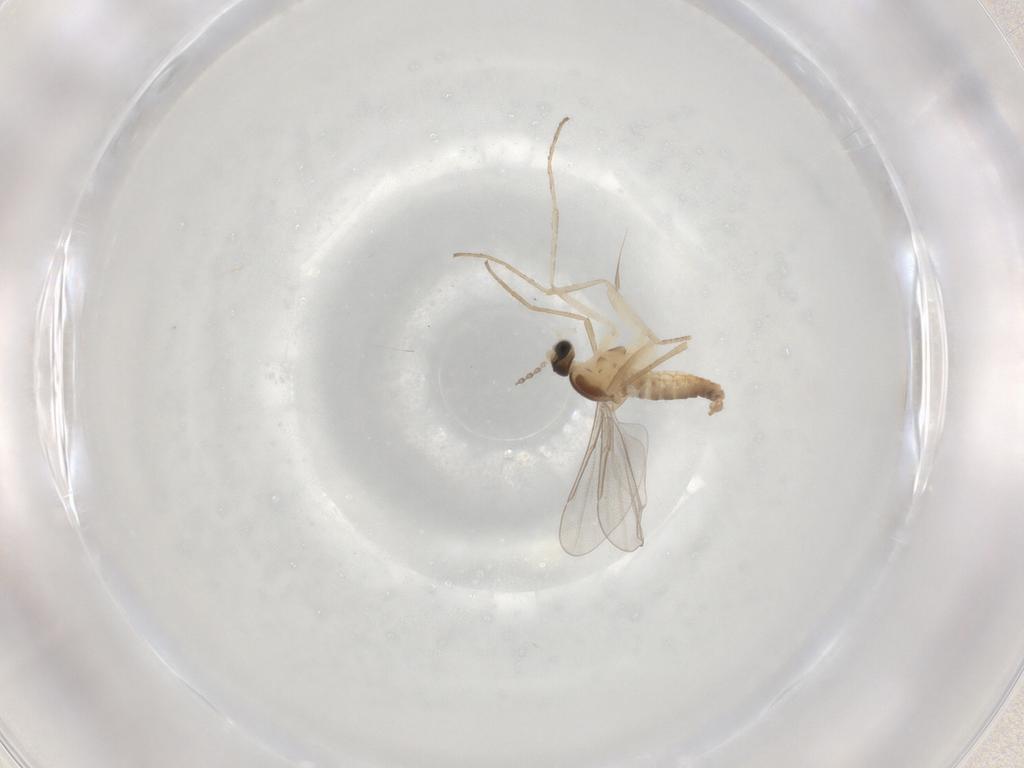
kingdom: Animalia
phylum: Arthropoda
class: Insecta
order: Diptera
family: Cecidomyiidae
